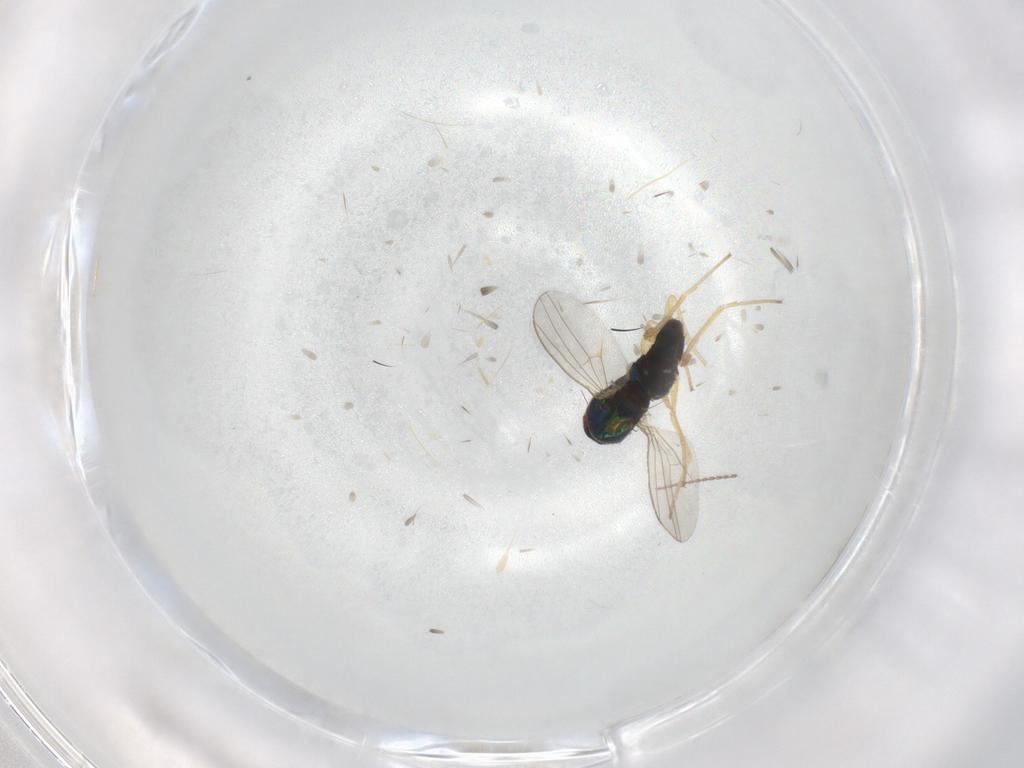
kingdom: Animalia
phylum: Arthropoda
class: Insecta
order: Diptera
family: Dolichopodidae
